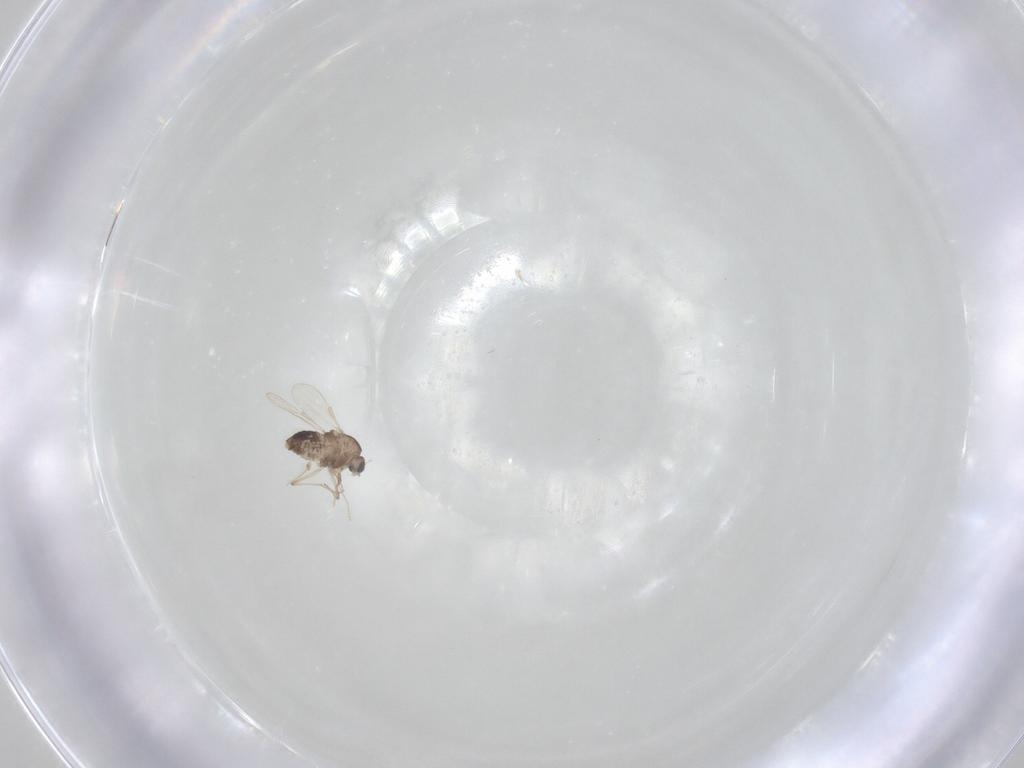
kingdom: Animalia
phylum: Arthropoda
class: Insecta
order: Diptera
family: Chironomidae
